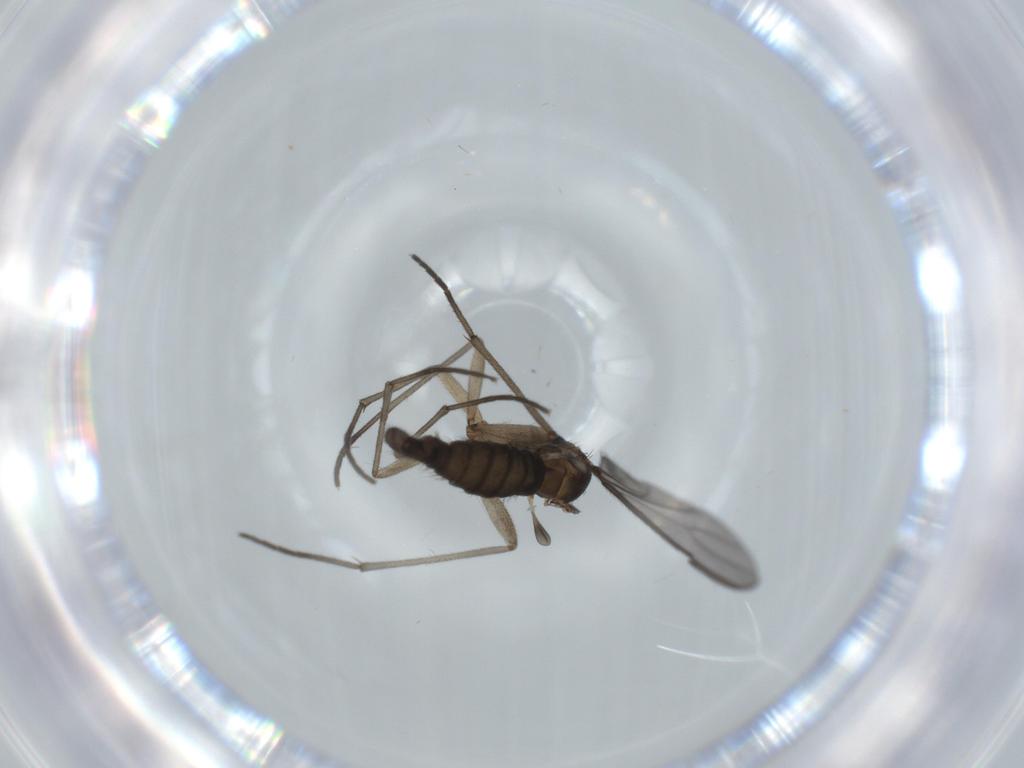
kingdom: Animalia
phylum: Arthropoda
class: Insecta
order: Diptera
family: Sciaridae
